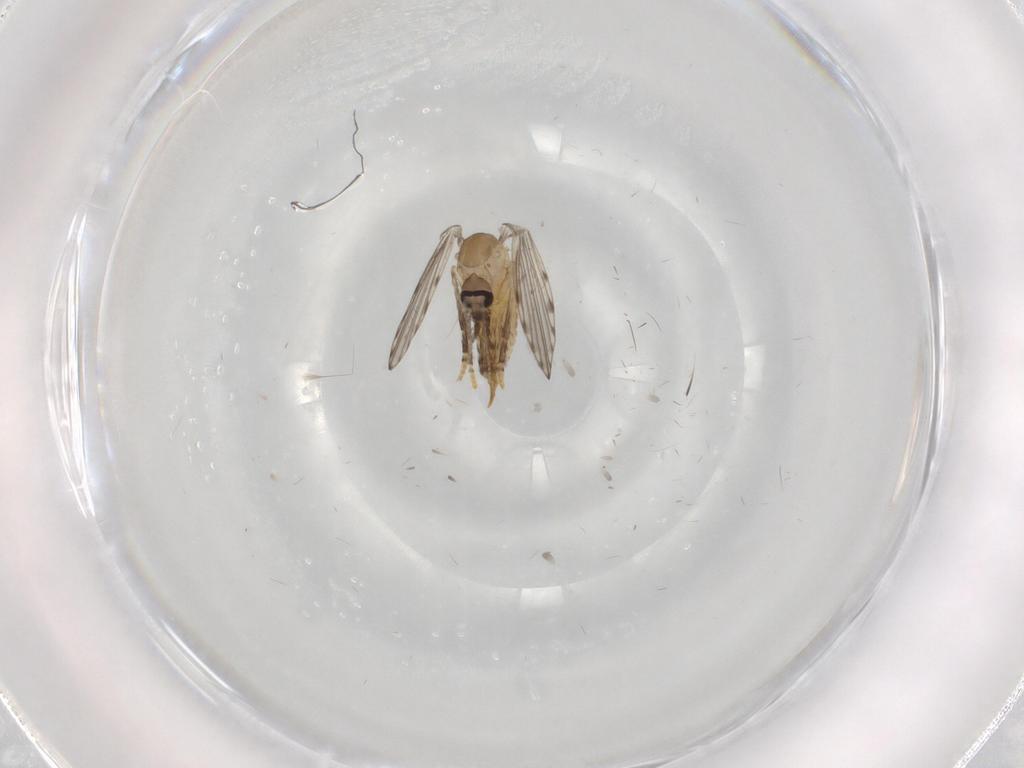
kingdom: Animalia
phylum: Arthropoda
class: Insecta
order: Diptera
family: Psychodidae
